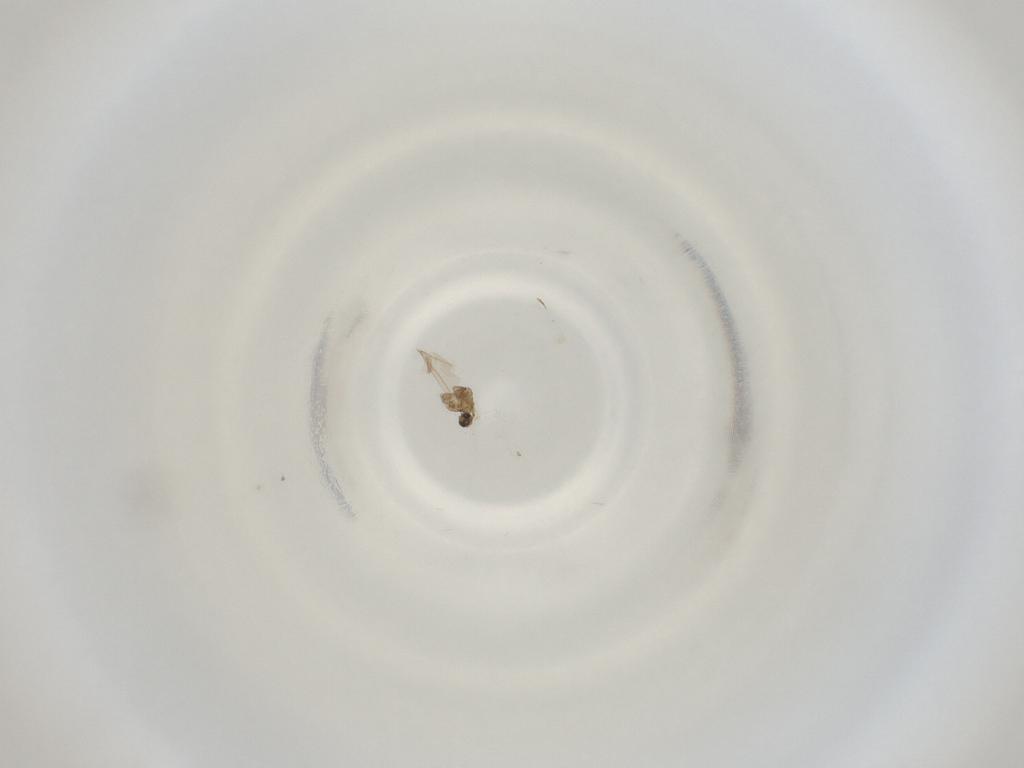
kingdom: Animalia
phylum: Arthropoda
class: Insecta
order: Diptera
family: Cecidomyiidae
